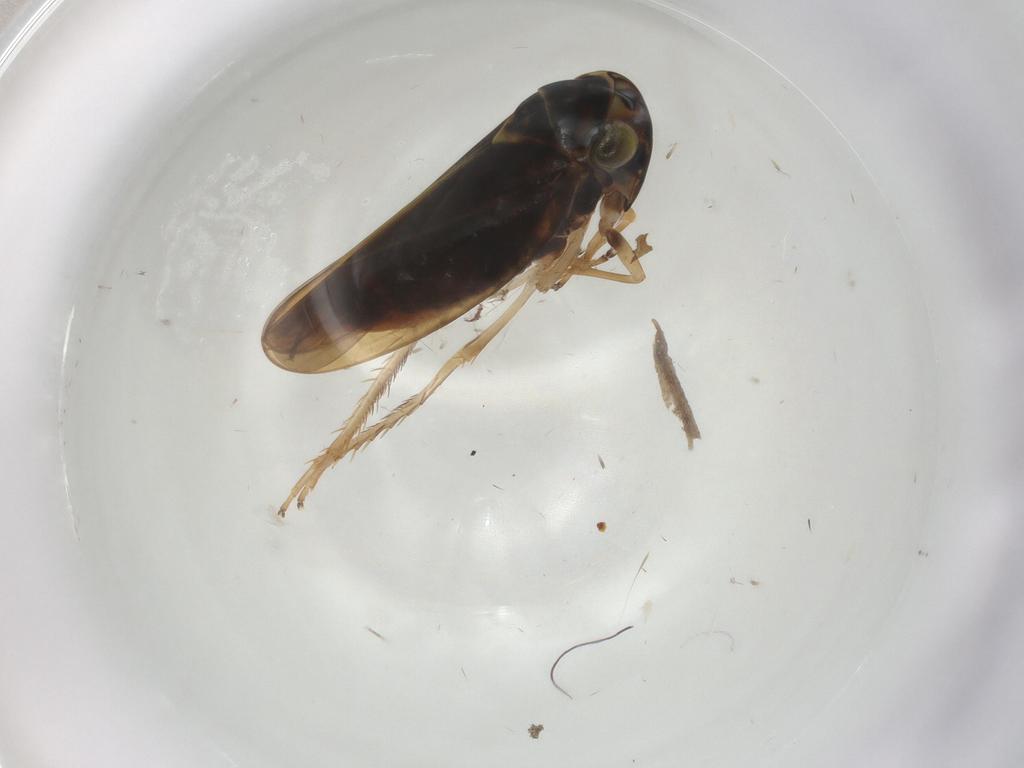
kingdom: Animalia
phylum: Arthropoda
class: Insecta
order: Hemiptera
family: Cicadellidae
